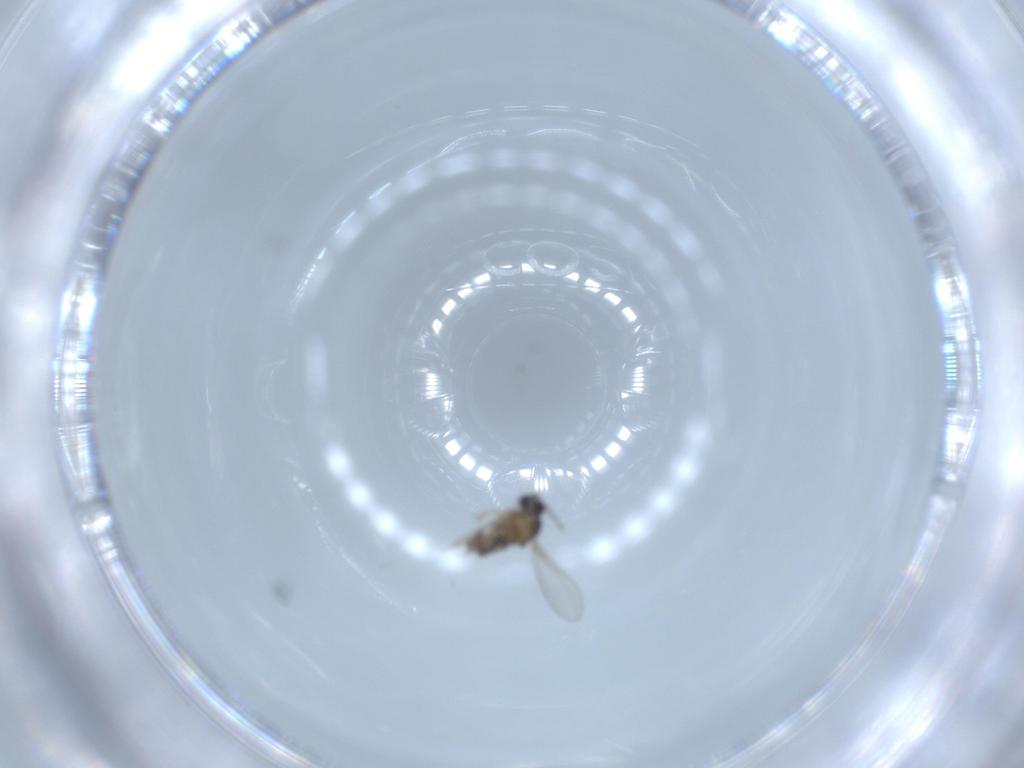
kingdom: Animalia
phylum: Arthropoda
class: Insecta
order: Diptera
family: Cecidomyiidae
